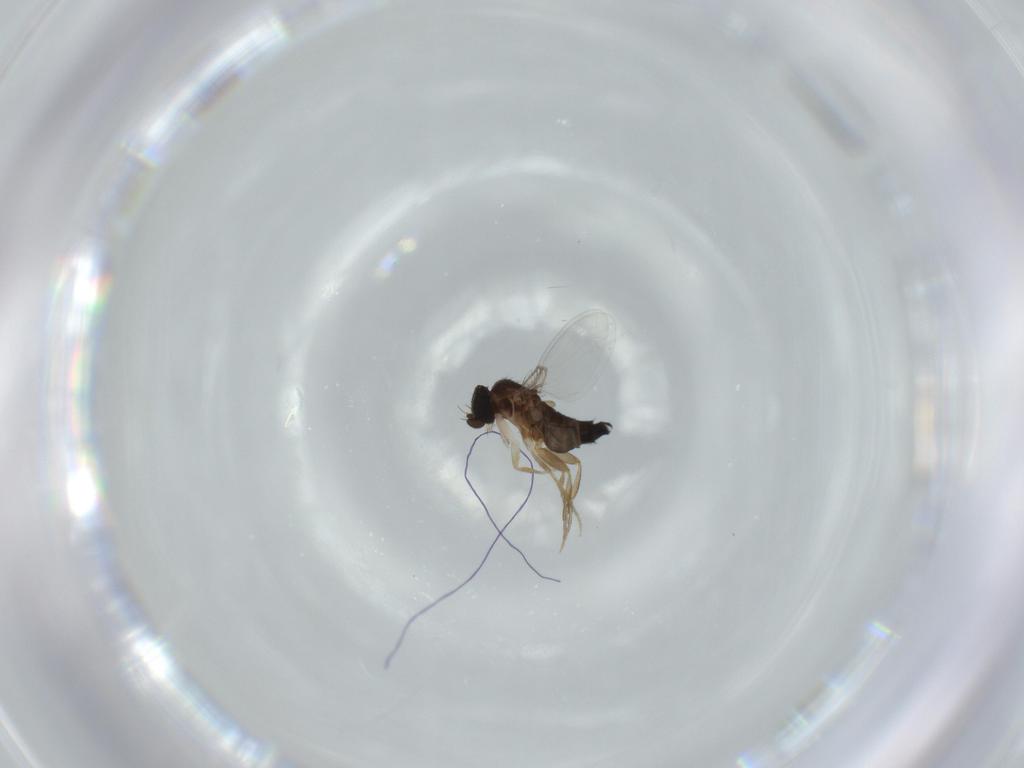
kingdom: Animalia
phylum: Arthropoda
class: Insecta
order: Diptera
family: Phoridae
